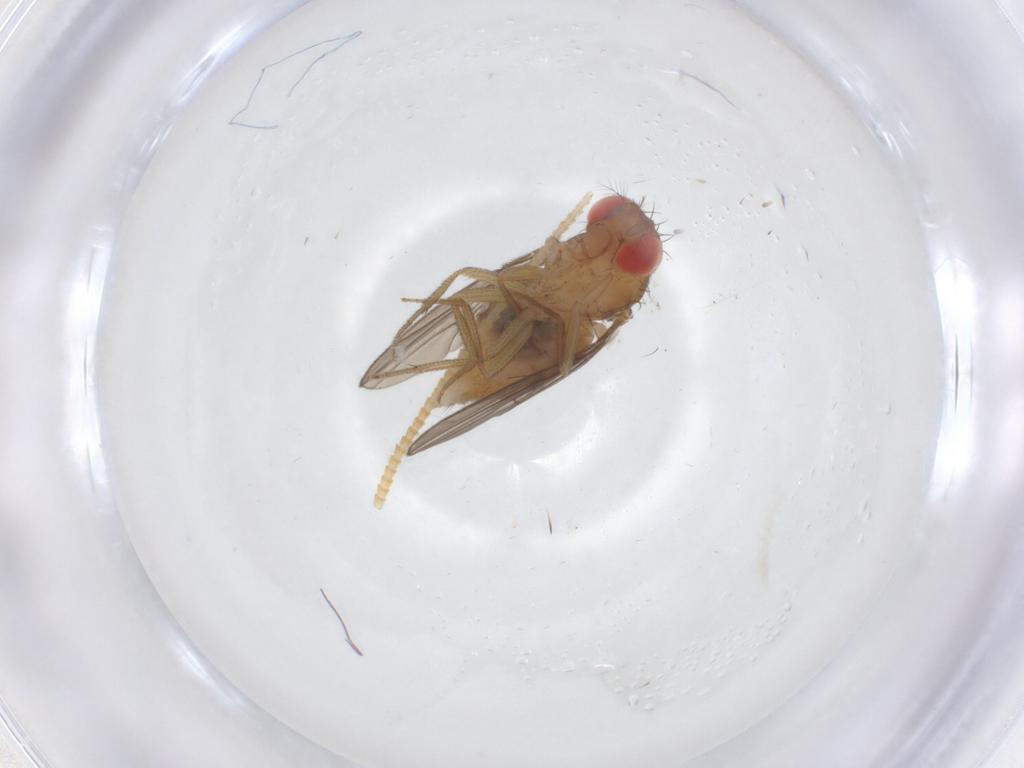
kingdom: Animalia
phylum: Arthropoda
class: Insecta
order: Diptera
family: Drosophilidae
